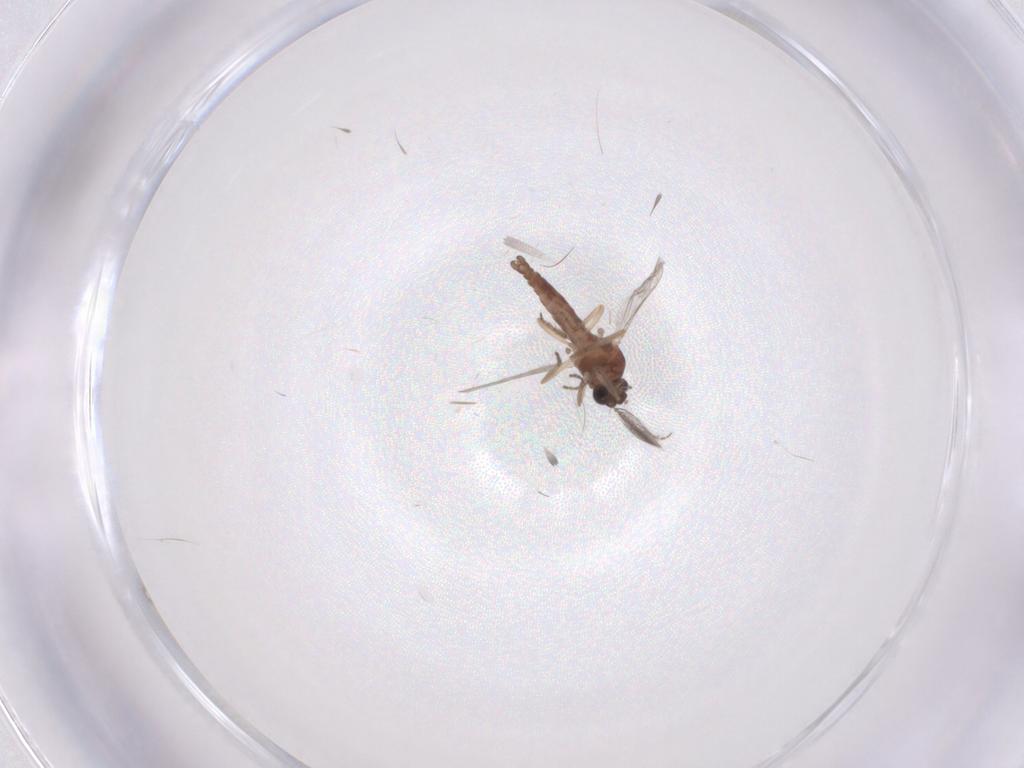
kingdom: Animalia
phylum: Arthropoda
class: Insecta
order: Diptera
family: Ceratopogonidae
